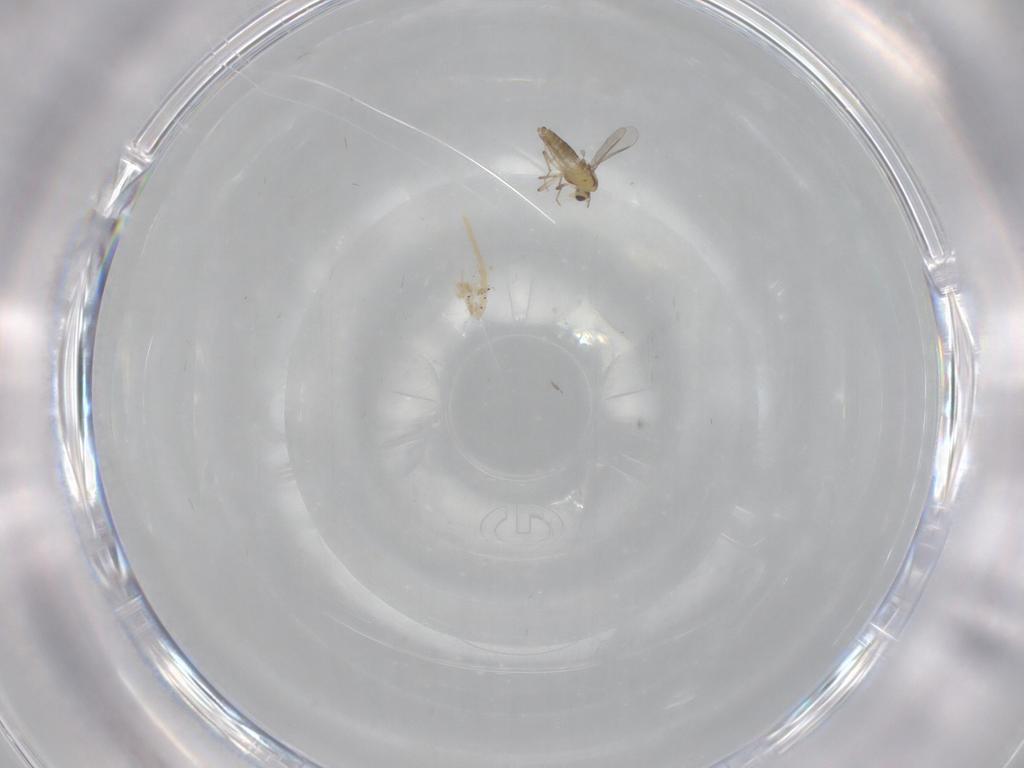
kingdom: Animalia
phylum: Arthropoda
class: Insecta
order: Diptera
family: Chironomidae
